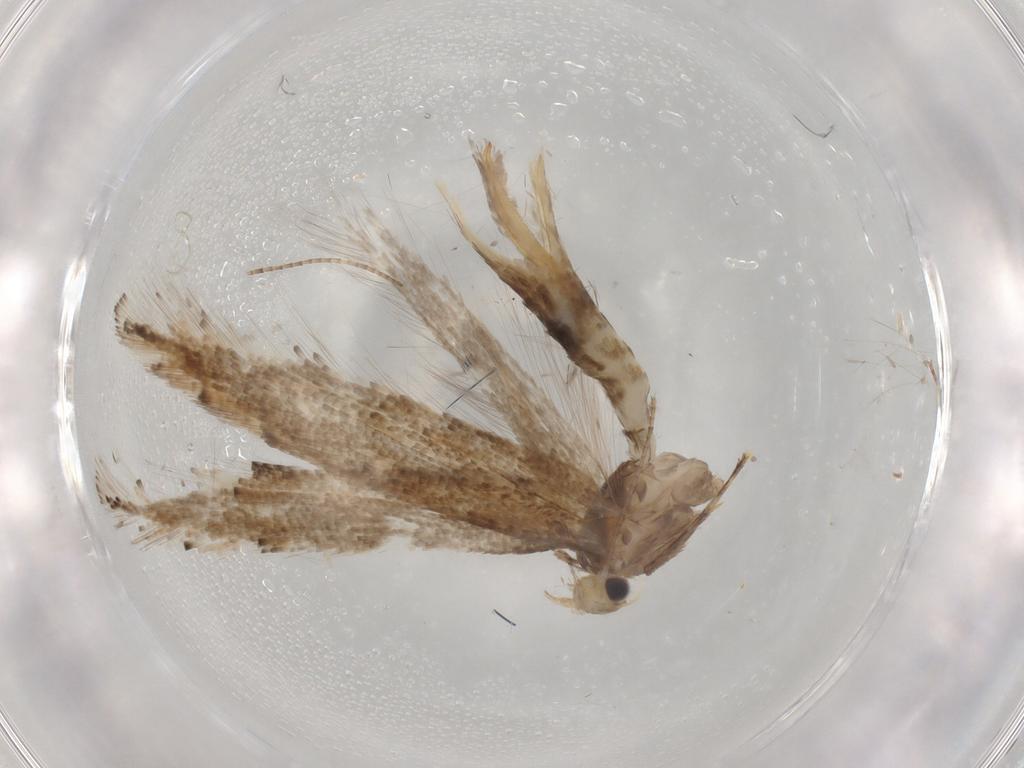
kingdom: Animalia
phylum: Arthropoda
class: Insecta
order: Lepidoptera
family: Gracillariidae
